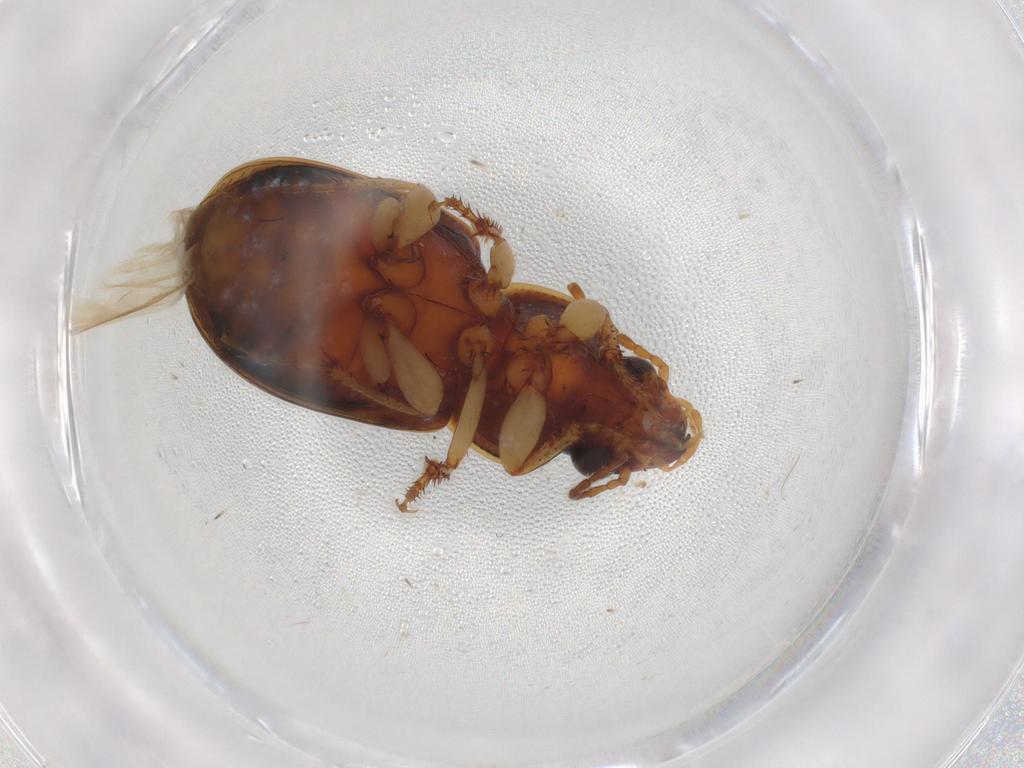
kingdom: Animalia
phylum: Arthropoda
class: Insecta
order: Coleoptera
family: Carabidae
